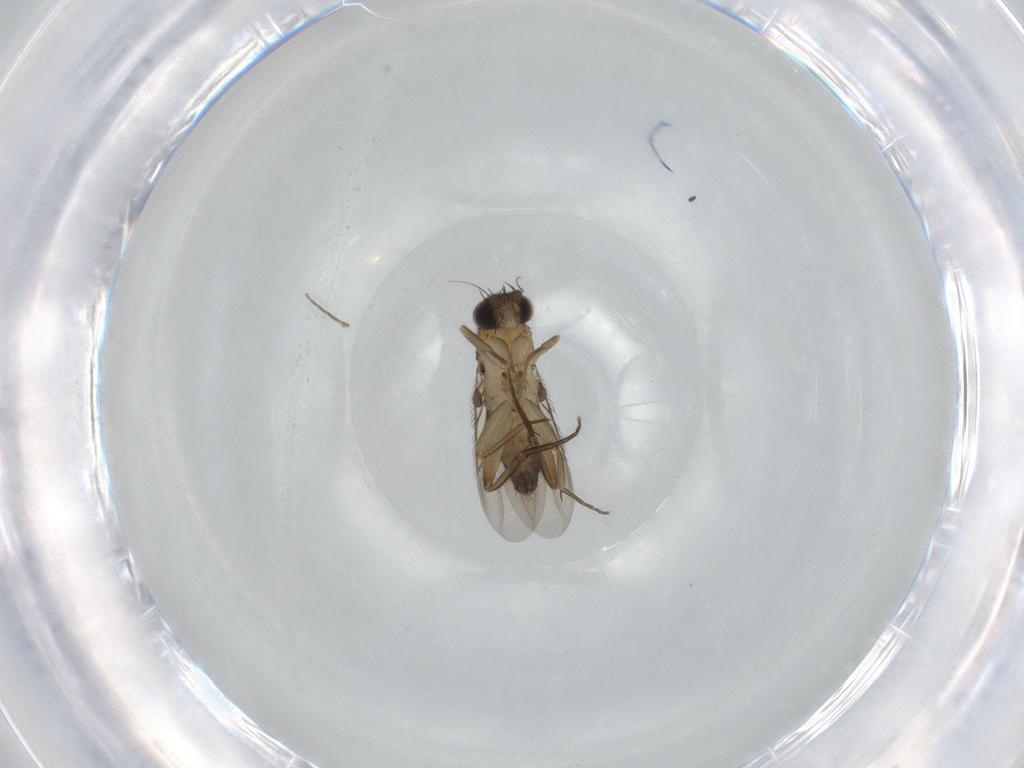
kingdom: Animalia
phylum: Arthropoda
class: Insecta
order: Diptera
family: Phoridae
